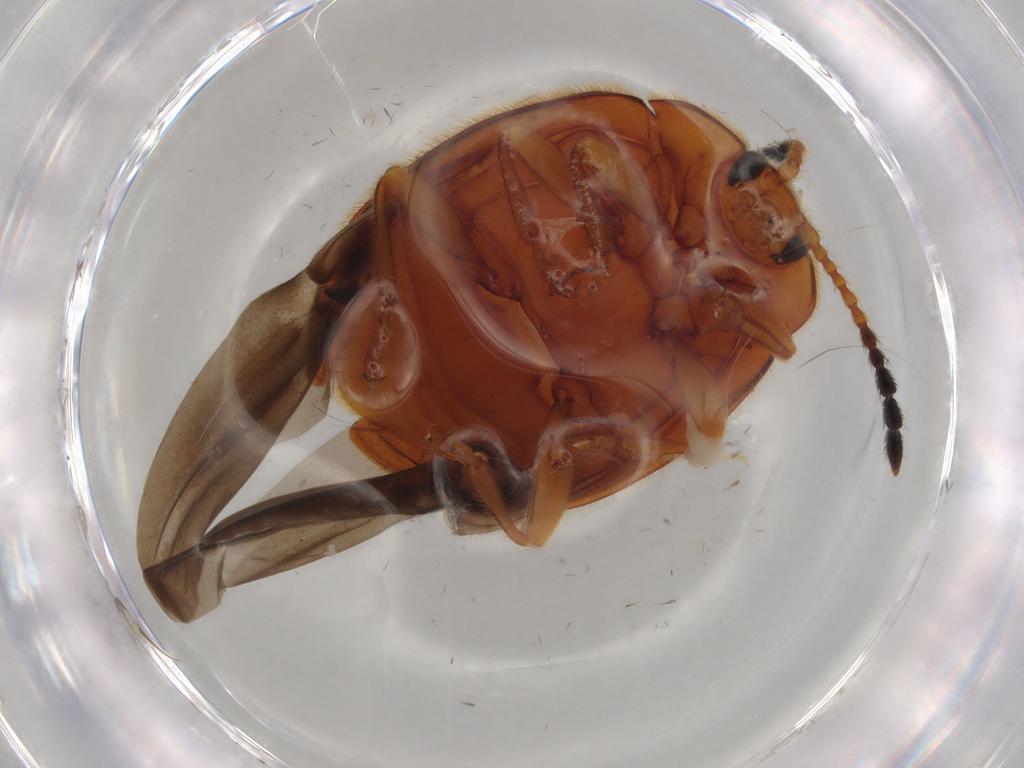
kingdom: Animalia
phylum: Arthropoda
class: Insecta
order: Coleoptera
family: Endomychidae
